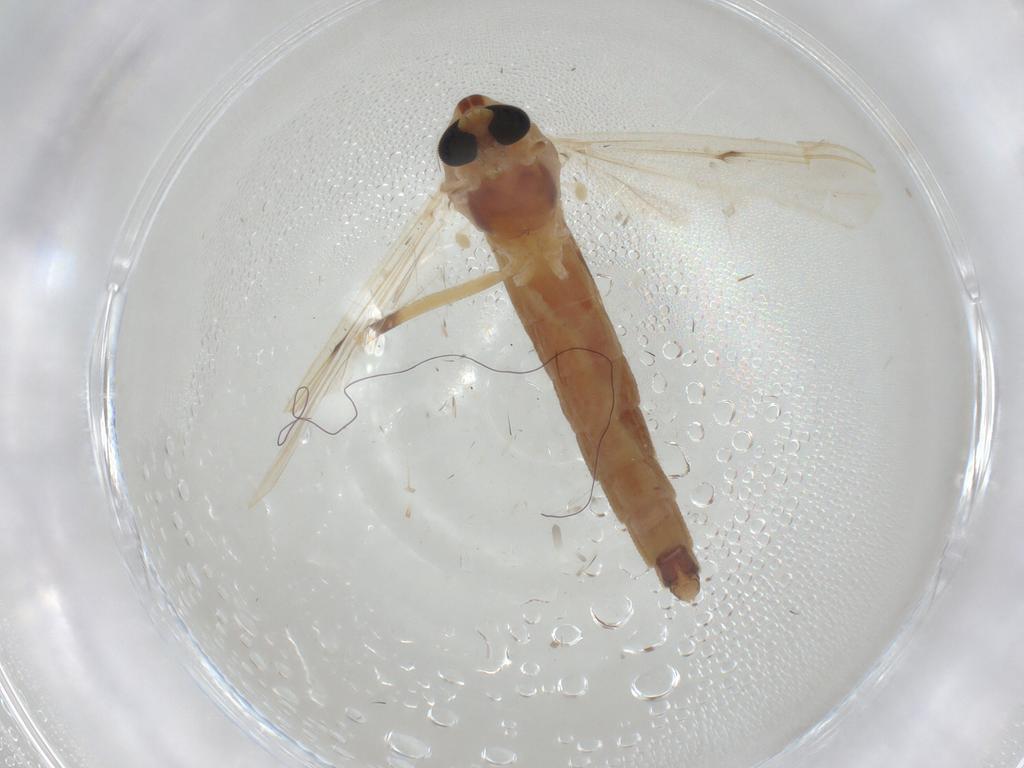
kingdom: Animalia
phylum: Arthropoda
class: Insecta
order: Diptera
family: Chironomidae
